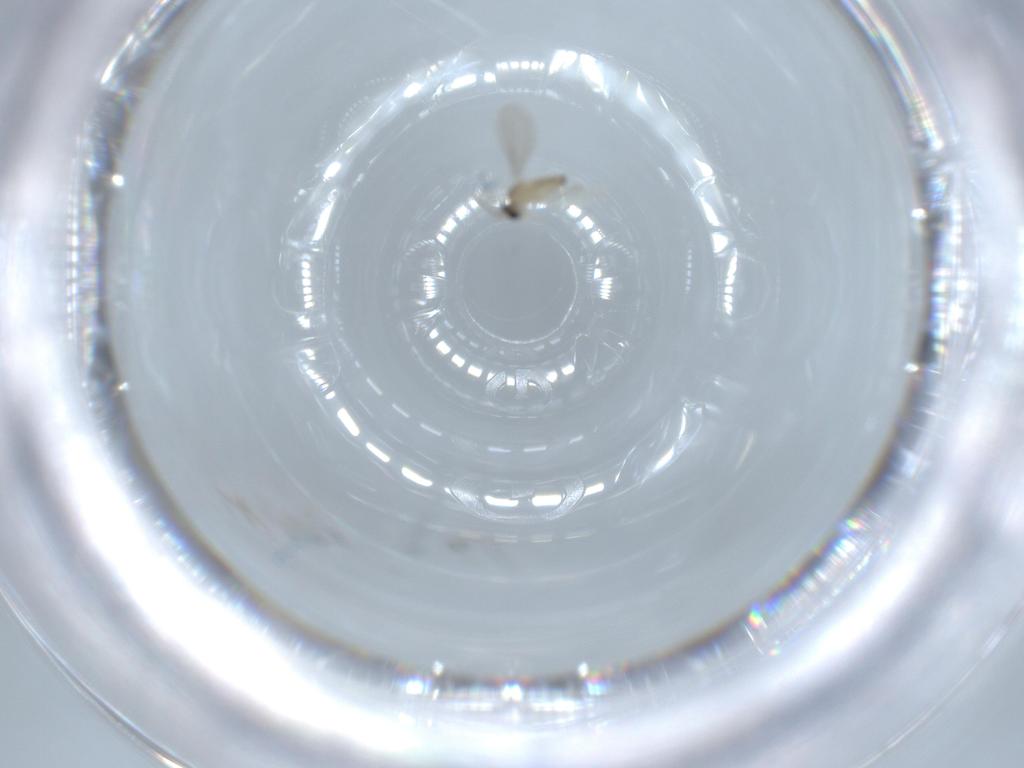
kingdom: Animalia
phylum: Arthropoda
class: Insecta
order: Diptera
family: Cecidomyiidae
